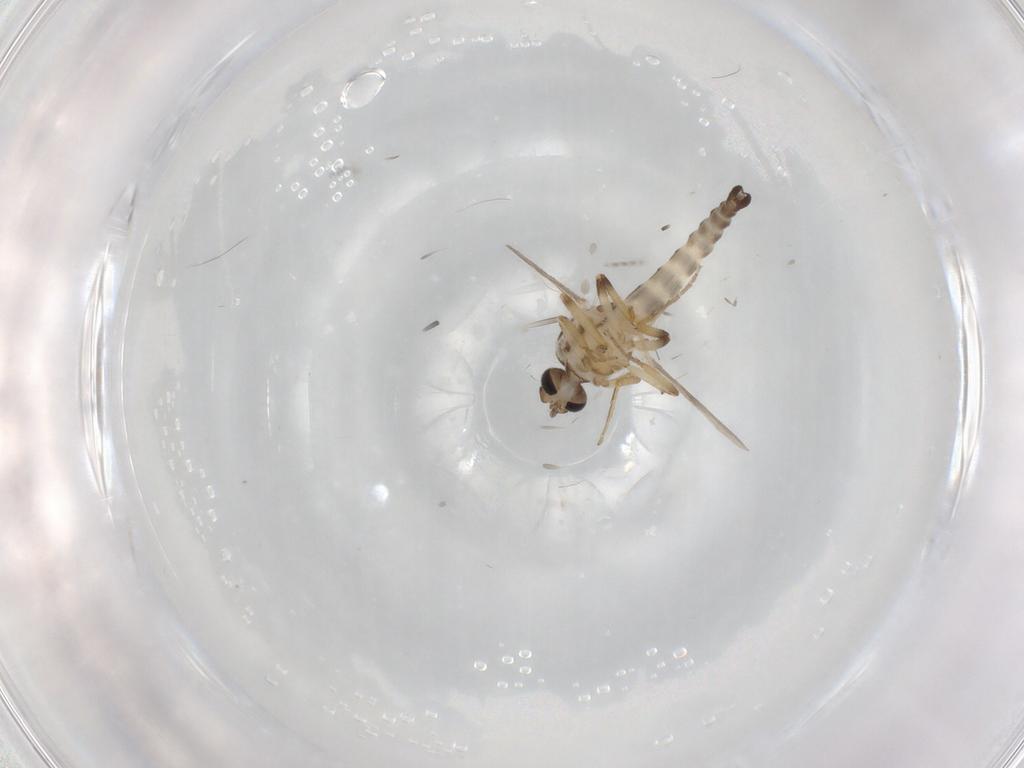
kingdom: Animalia
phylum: Arthropoda
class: Insecta
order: Diptera
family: Ceratopogonidae
